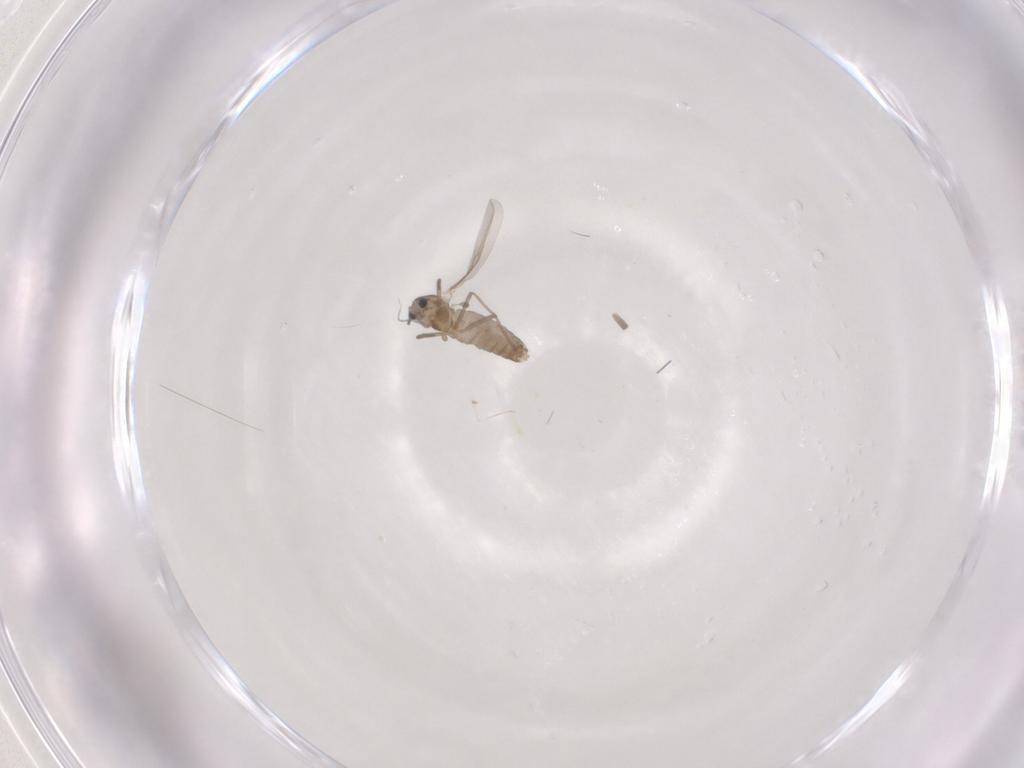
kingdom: Animalia
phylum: Arthropoda
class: Insecta
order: Diptera
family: Chironomidae
